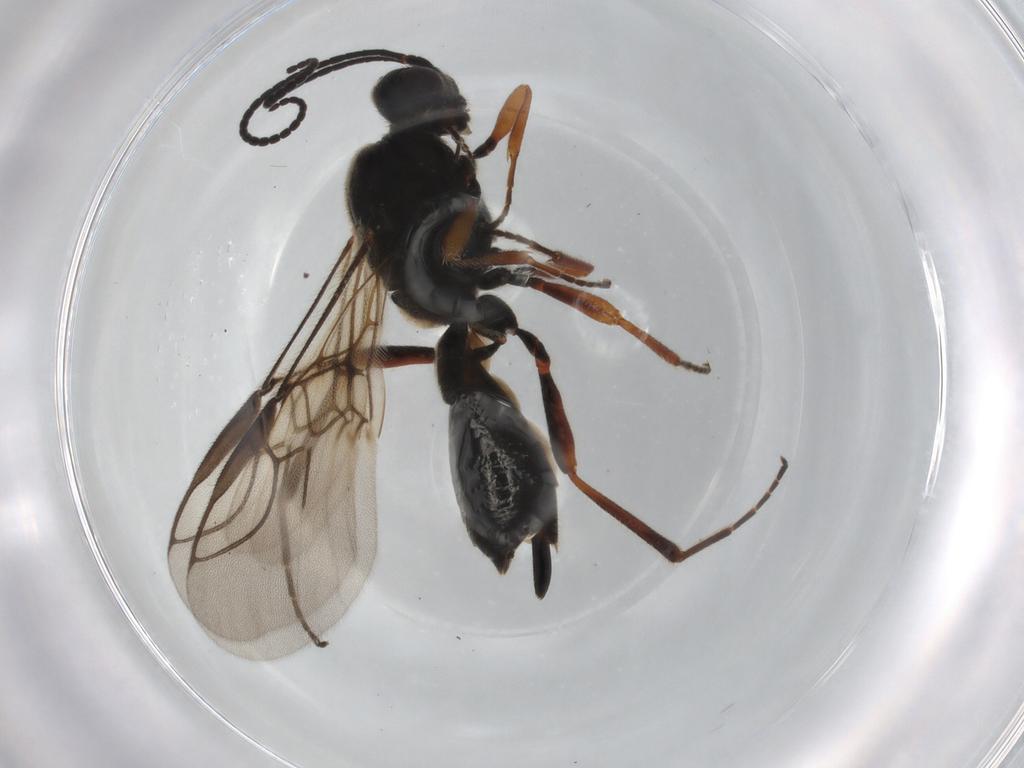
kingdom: Animalia
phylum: Arthropoda
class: Insecta
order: Hymenoptera
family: Braconidae
